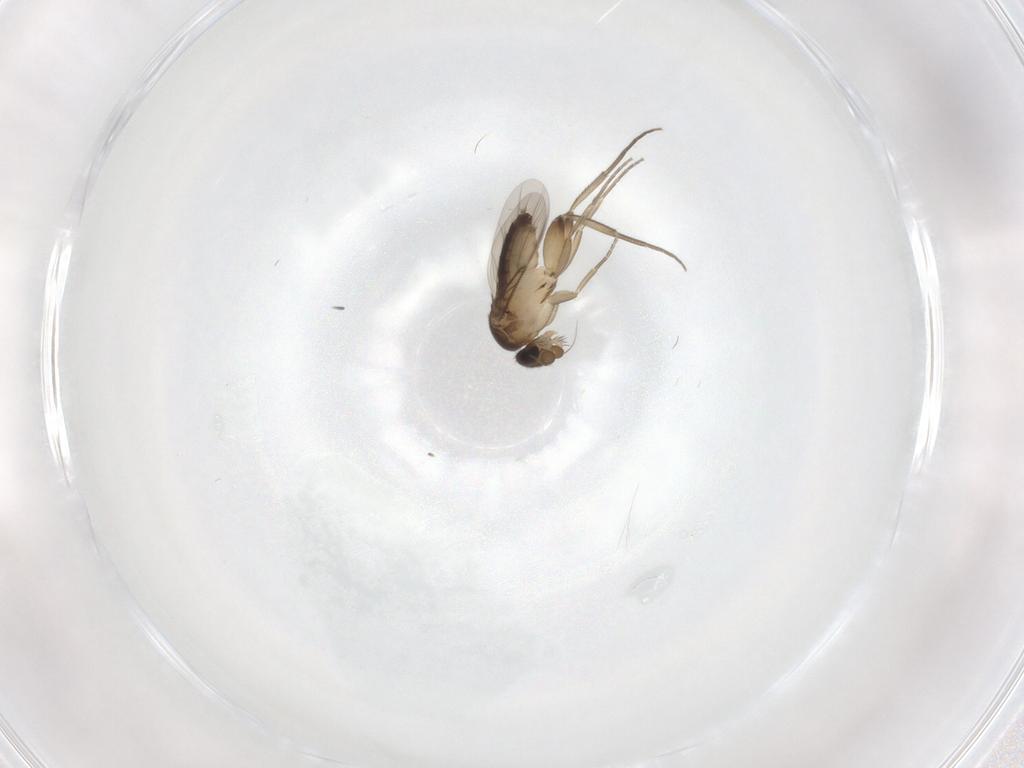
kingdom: Animalia
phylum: Arthropoda
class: Insecta
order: Diptera
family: Phoridae
